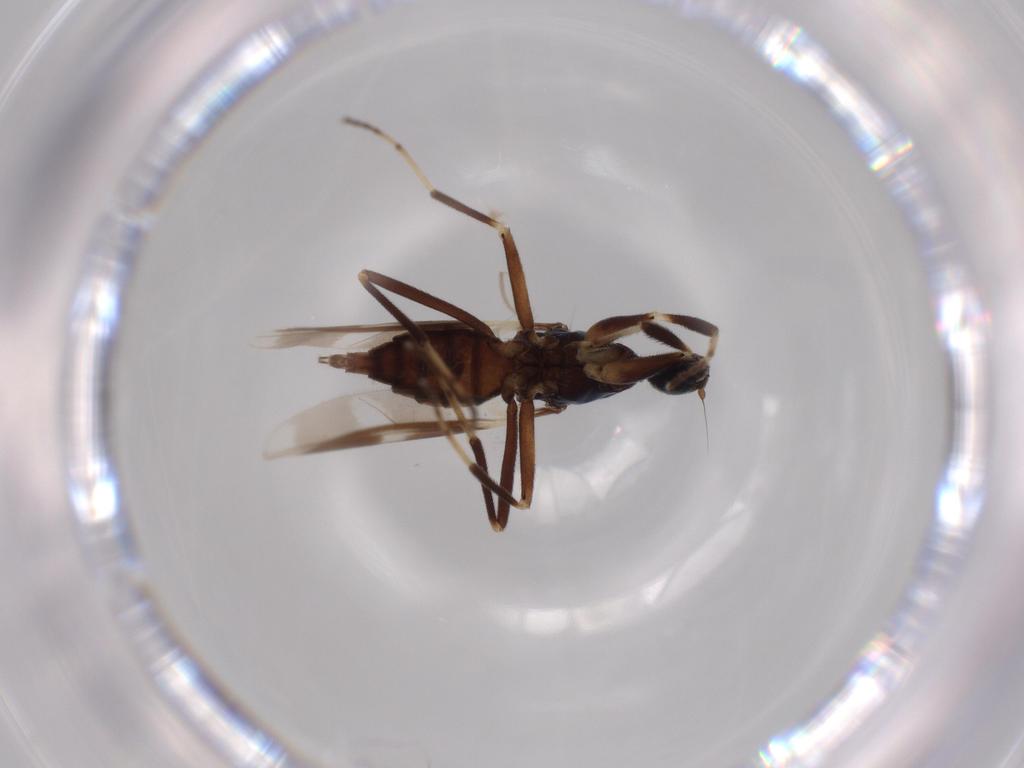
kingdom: Animalia
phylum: Arthropoda
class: Insecta
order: Diptera
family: Hybotidae
